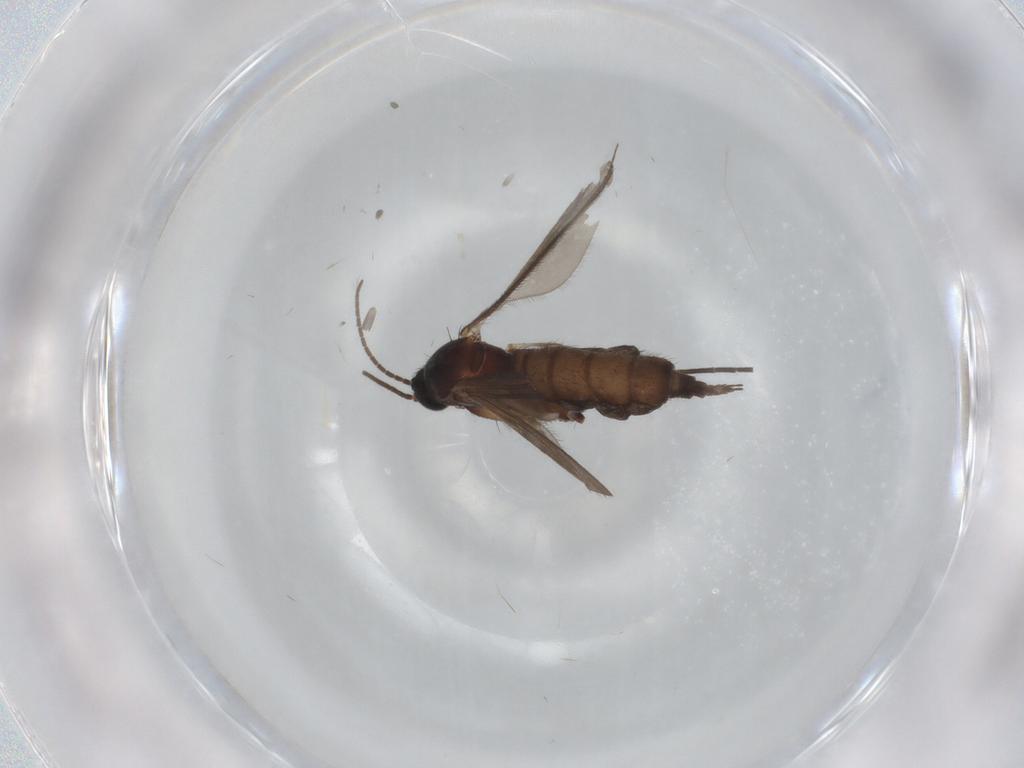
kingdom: Animalia
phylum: Arthropoda
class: Insecta
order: Diptera
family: Sciaridae
